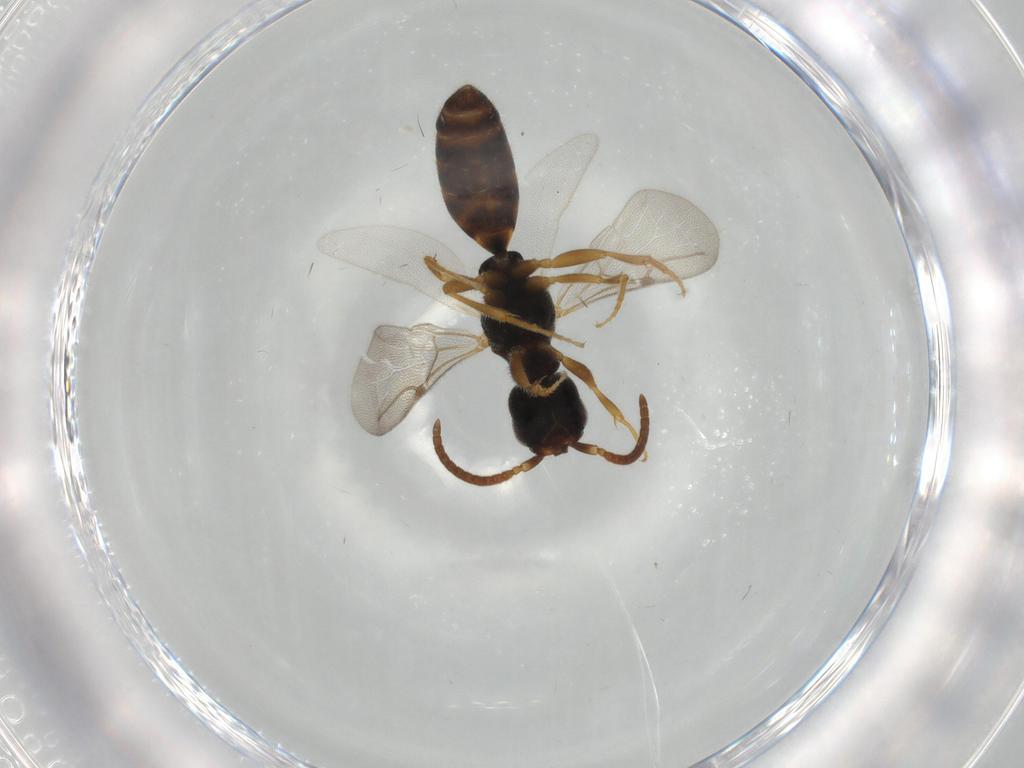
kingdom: Animalia
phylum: Arthropoda
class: Insecta
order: Hymenoptera
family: Bethylidae
